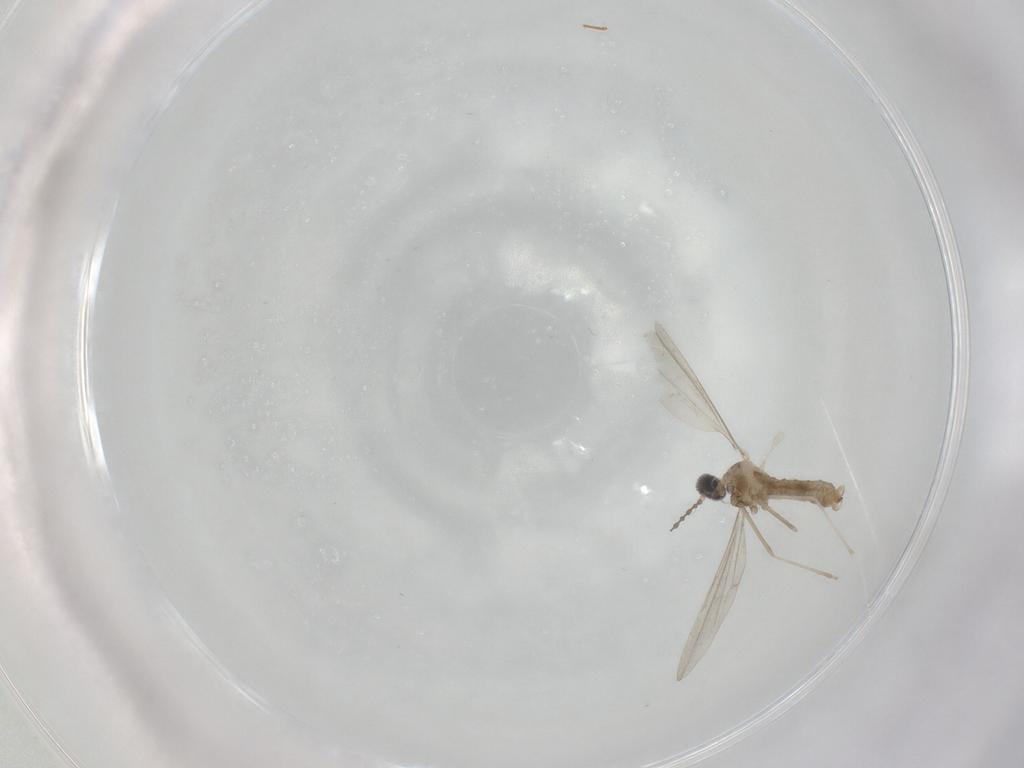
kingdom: Animalia
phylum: Arthropoda
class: Insecta
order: Diptera
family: Cecidomyiidae
